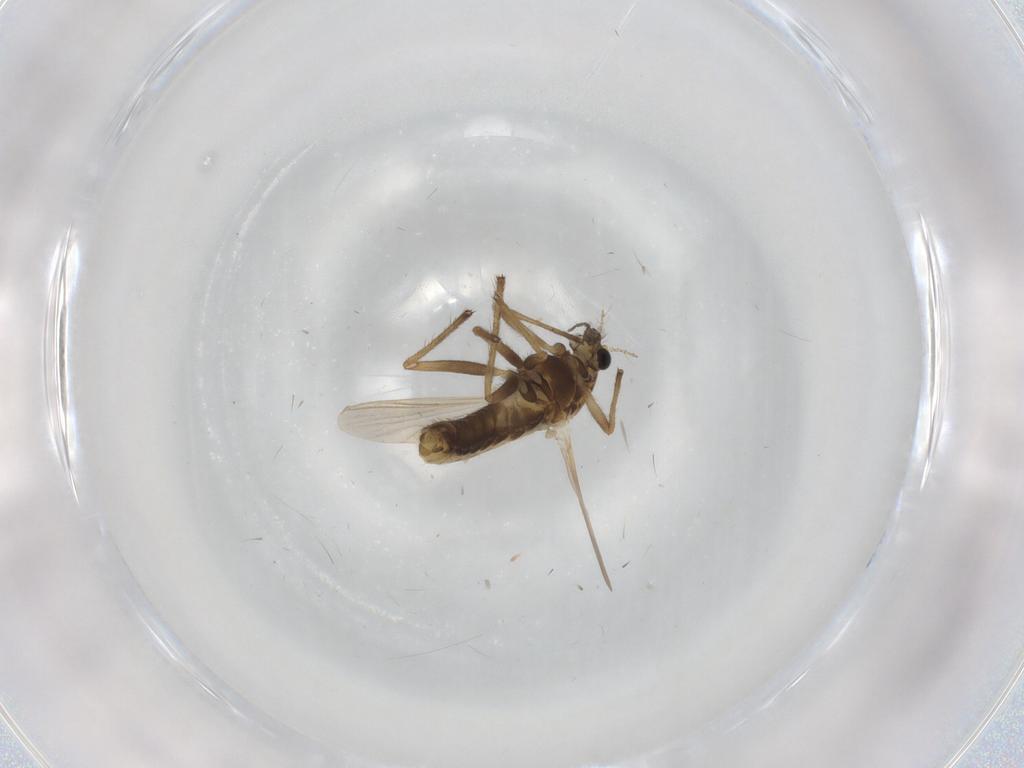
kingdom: Animalia
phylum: Arthropoda
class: Insecta
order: Diptera
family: Chironomidae
